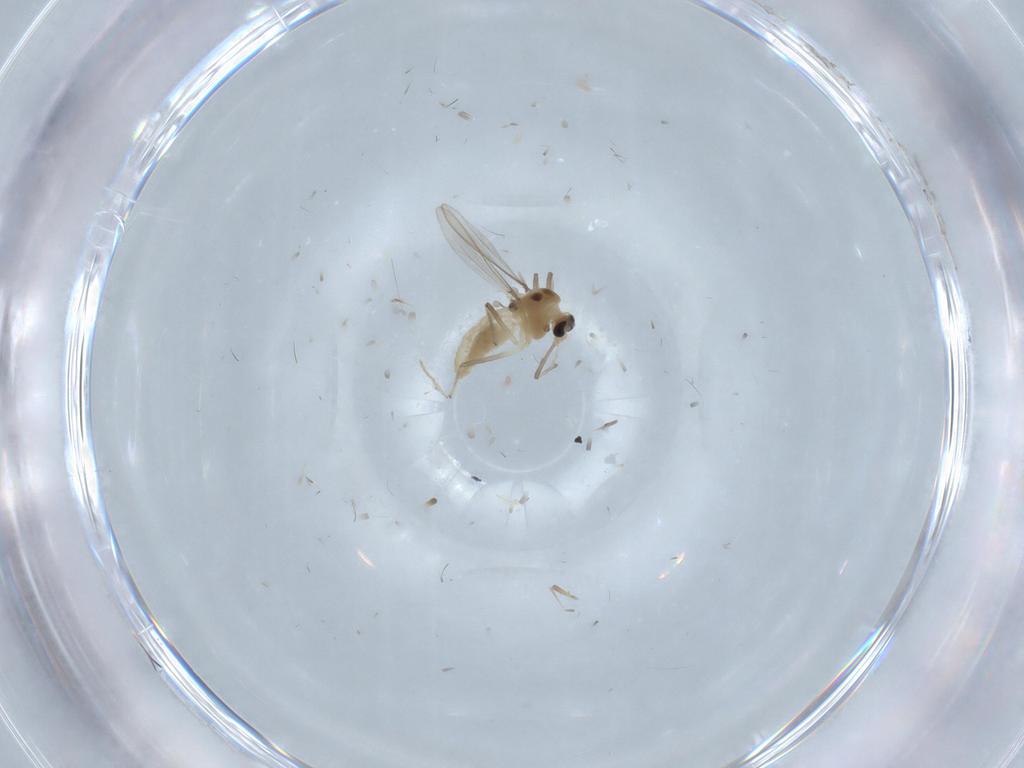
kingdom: Animalia
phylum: Arthropoda
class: Insecta
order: Diptera
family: Chironomidae
